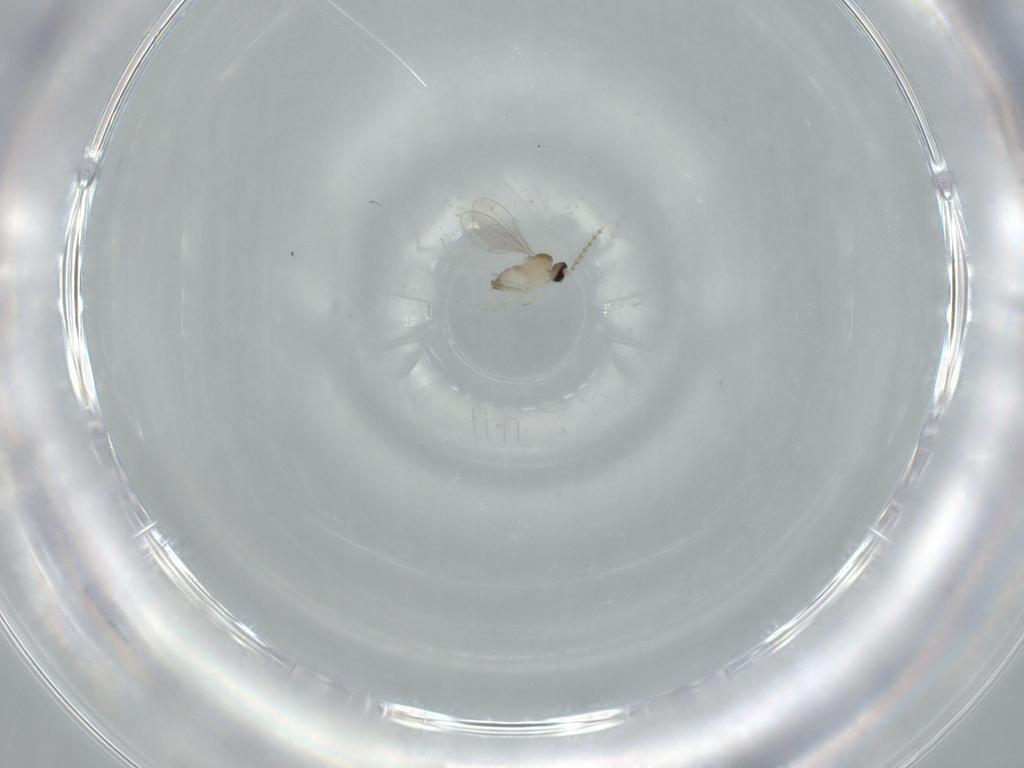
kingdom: Animalia
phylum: Arthropoda
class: Insecta
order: Diptera
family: Cecidomyiidae
